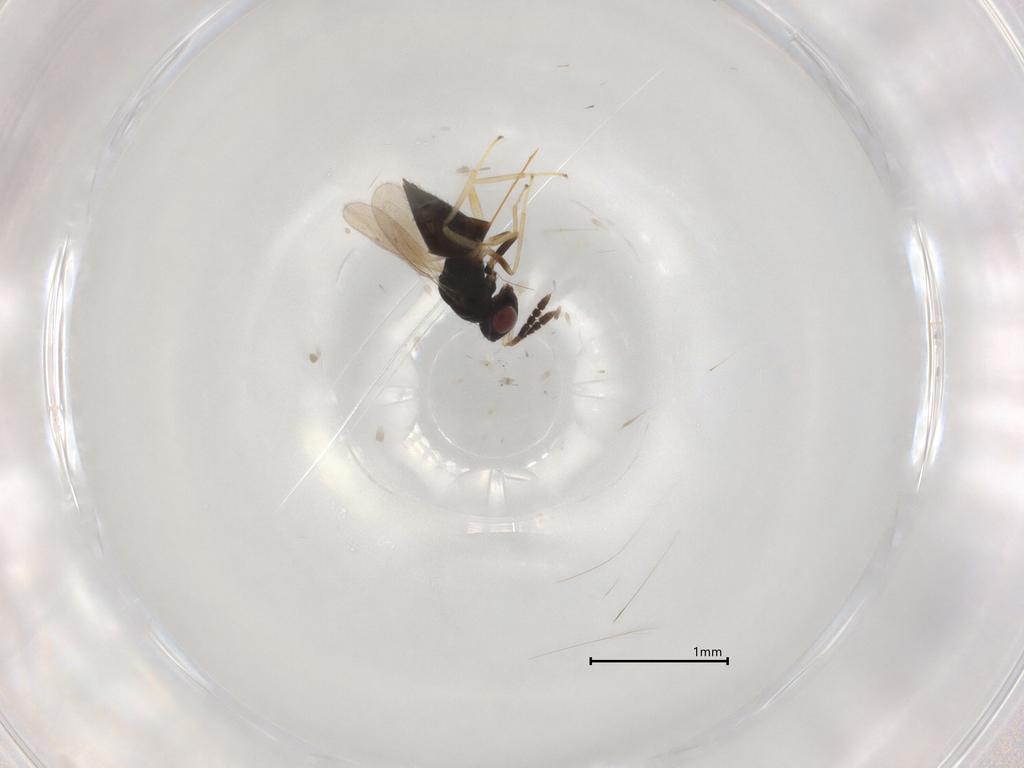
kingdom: Animalia
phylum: Arthropoda
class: Insecta
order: Hymenoptera
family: Eulophidae
